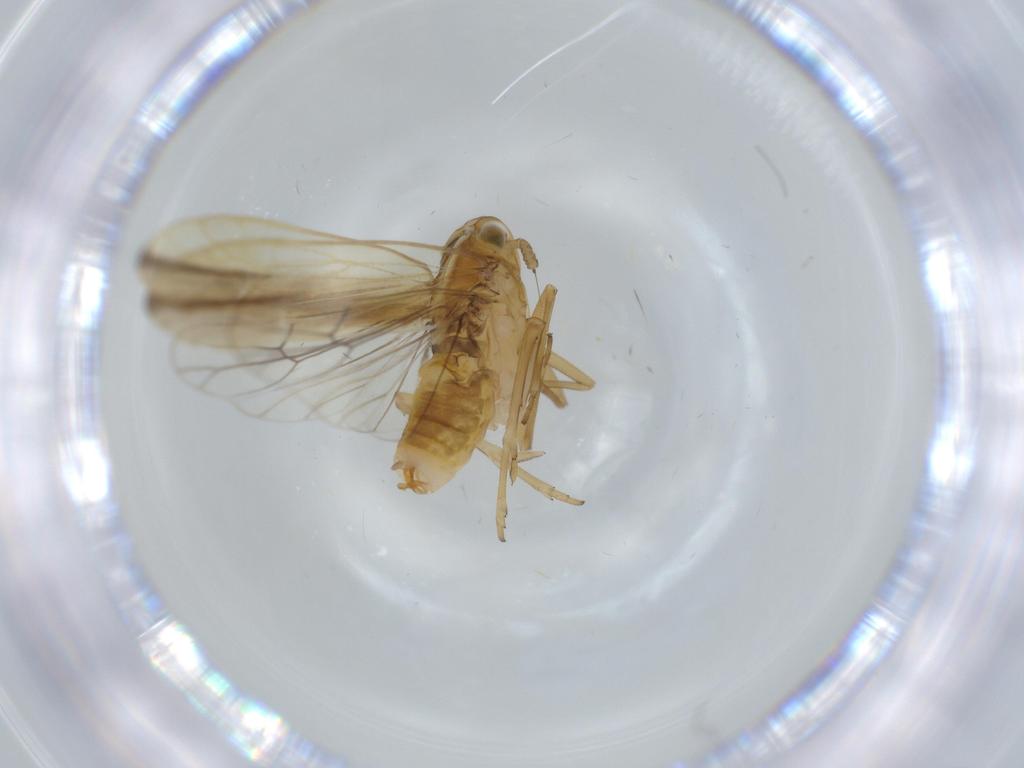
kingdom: Animalia
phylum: Arthropoda
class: Insecta
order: Hemiptera
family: Delphacidae
